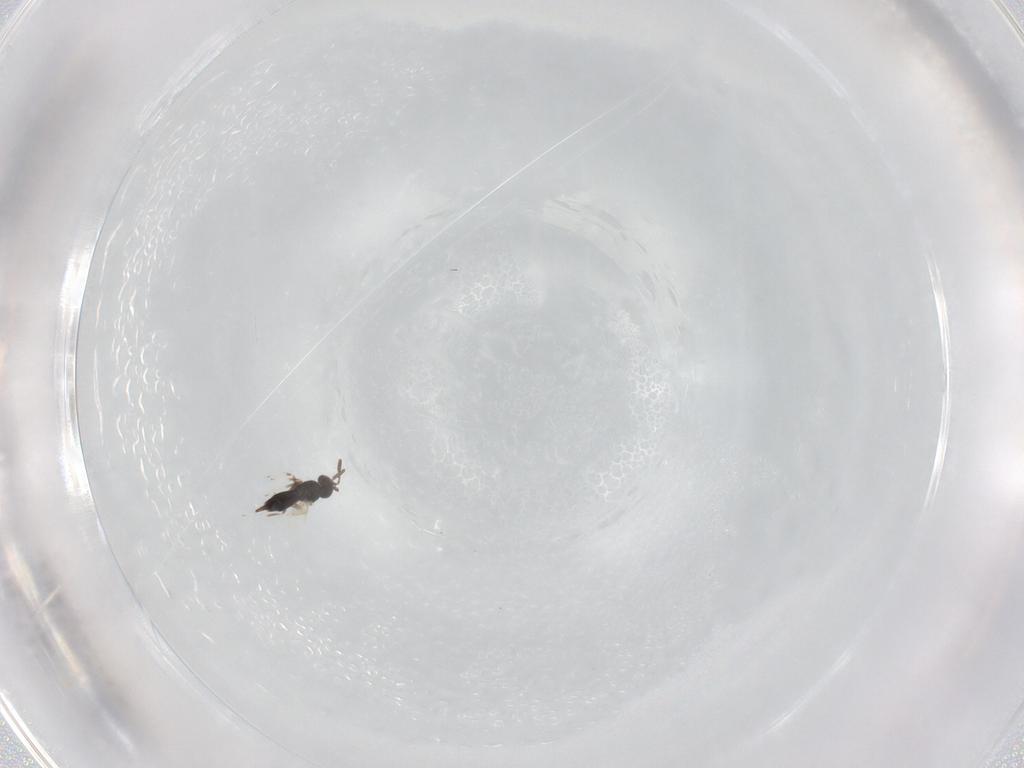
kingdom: Animalia
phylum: Arthropoda
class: Insecta
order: Hymenoptera
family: Scelionidae
